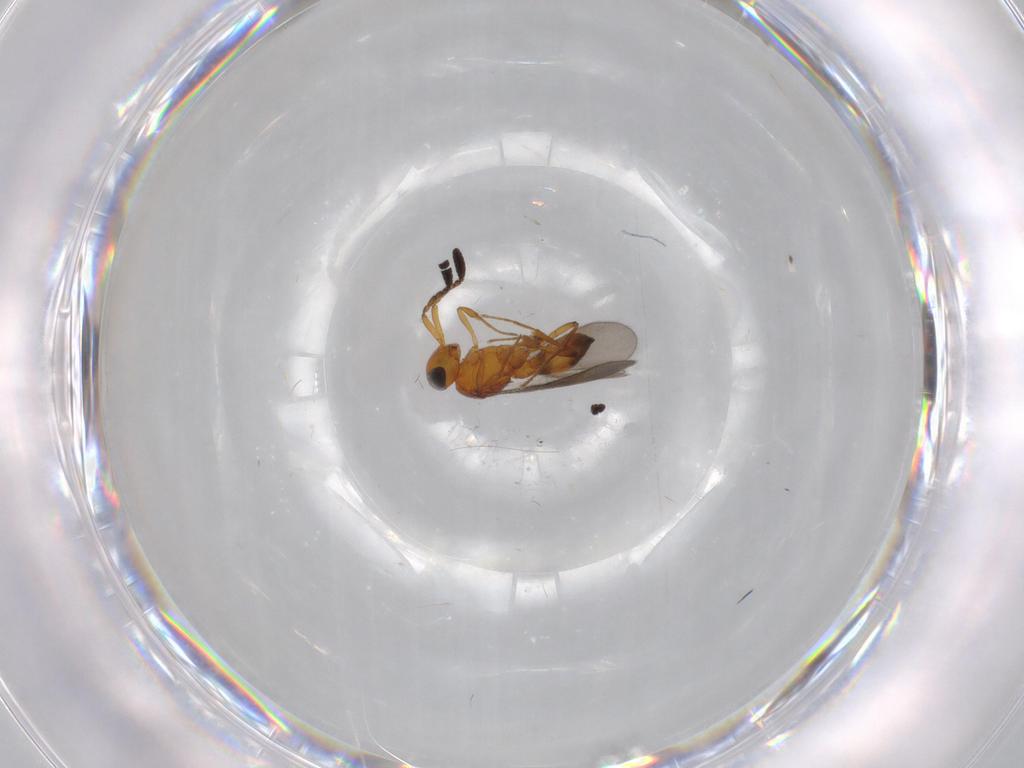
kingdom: Animalia
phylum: Arthropoda
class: Insecta
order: Hymenoptera
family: Scelionidae
